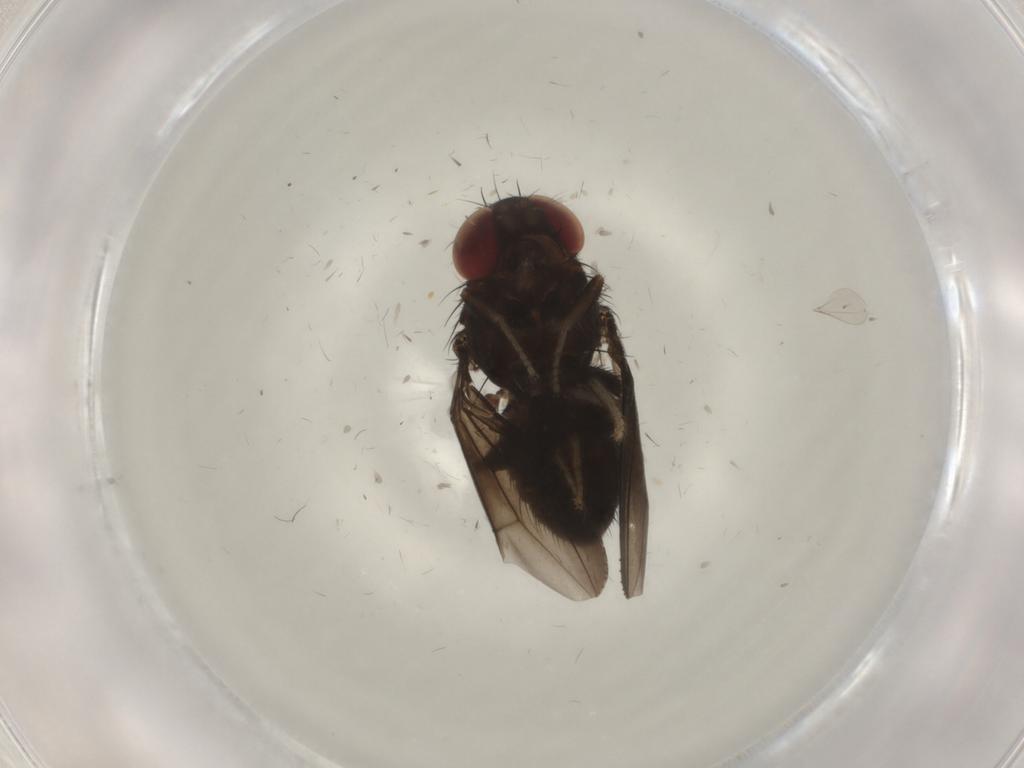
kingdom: Animalia
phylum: Arthropoda
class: Insecta
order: Diptera
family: Drosophilidae
